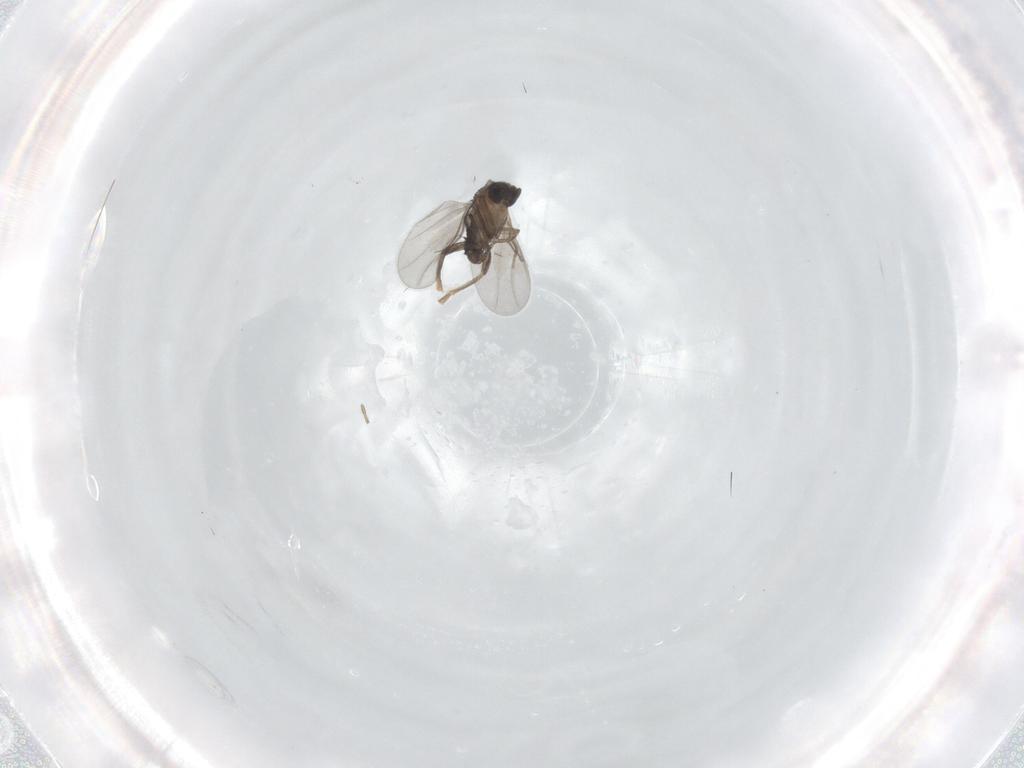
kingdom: Animalia
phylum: Arthropoda
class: Insecta
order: Diptera
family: Phoridae
